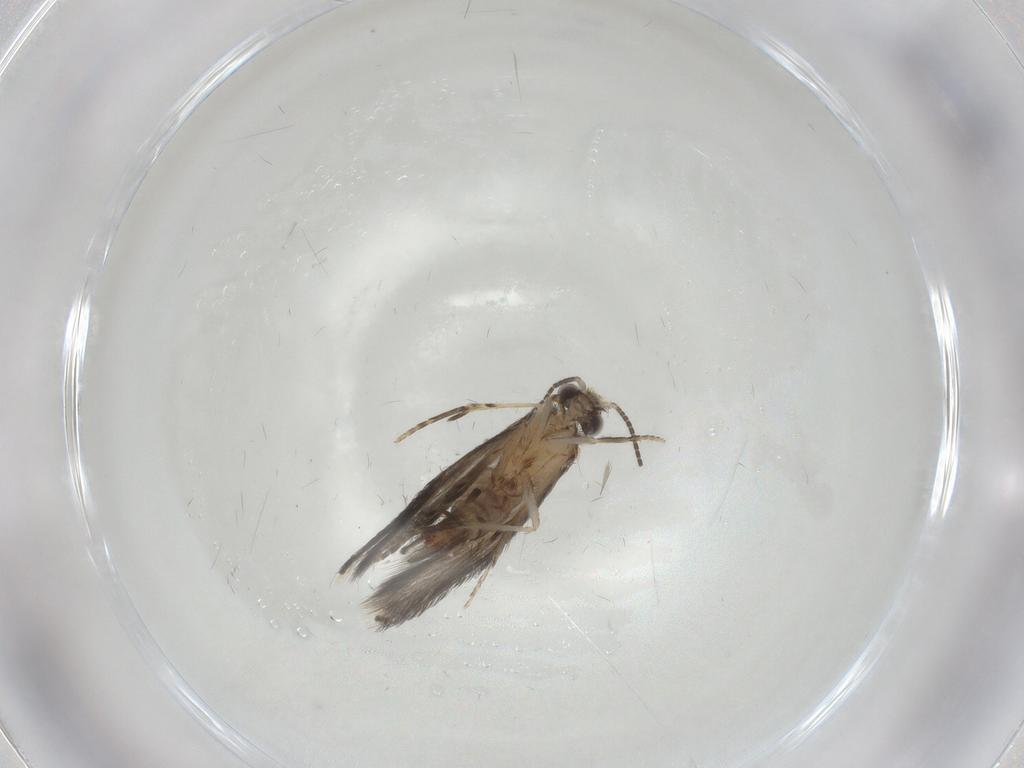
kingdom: Animalia
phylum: Arthropoda
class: Insecta
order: Trichoptera
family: Hydroptilidae
